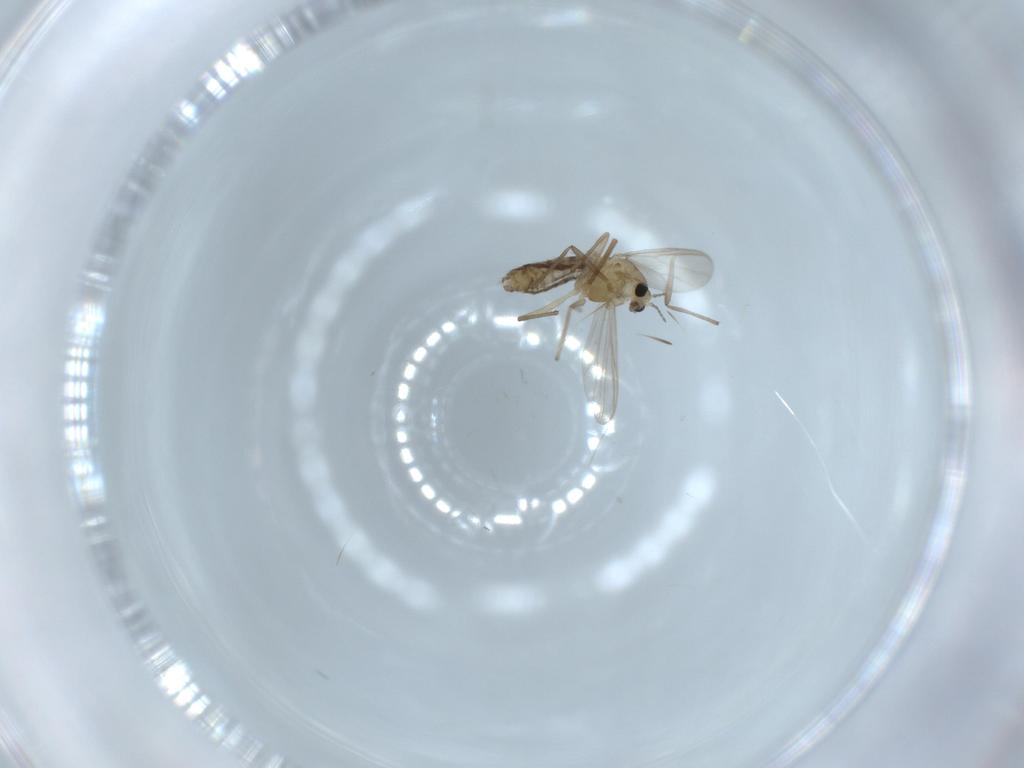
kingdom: Animalia
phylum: Arthropoda
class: Insecta
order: Diptera
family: Chironomidae
